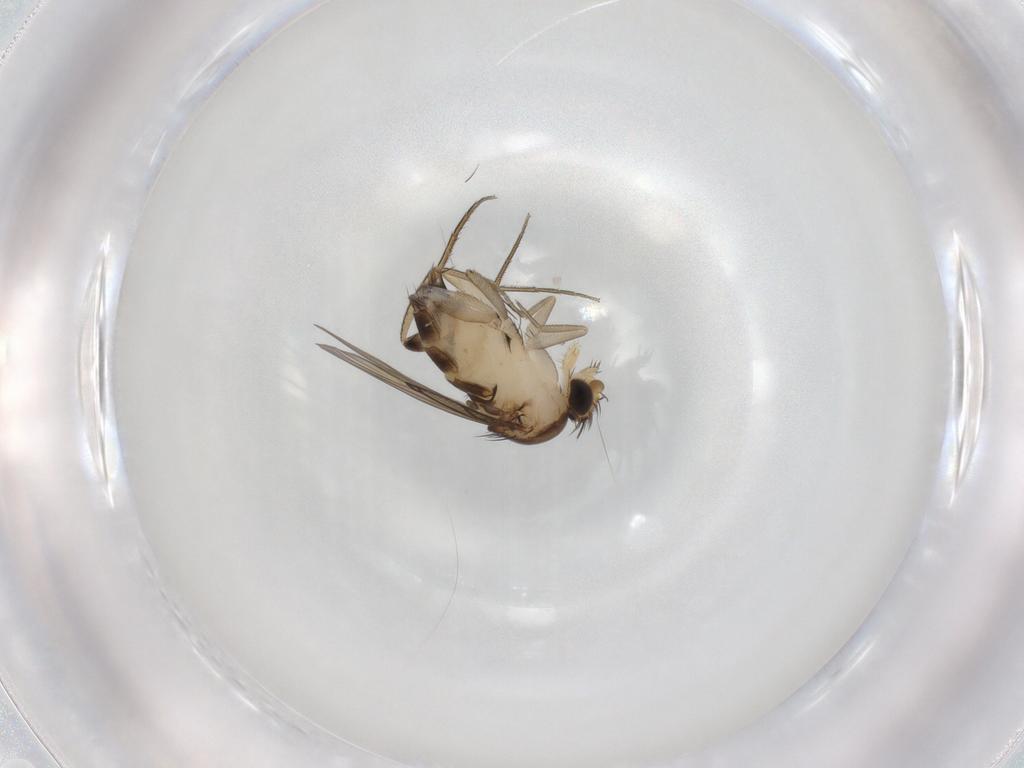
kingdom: Animalia
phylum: Arthropoda
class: Insecta
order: Diptera
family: Phoridae
